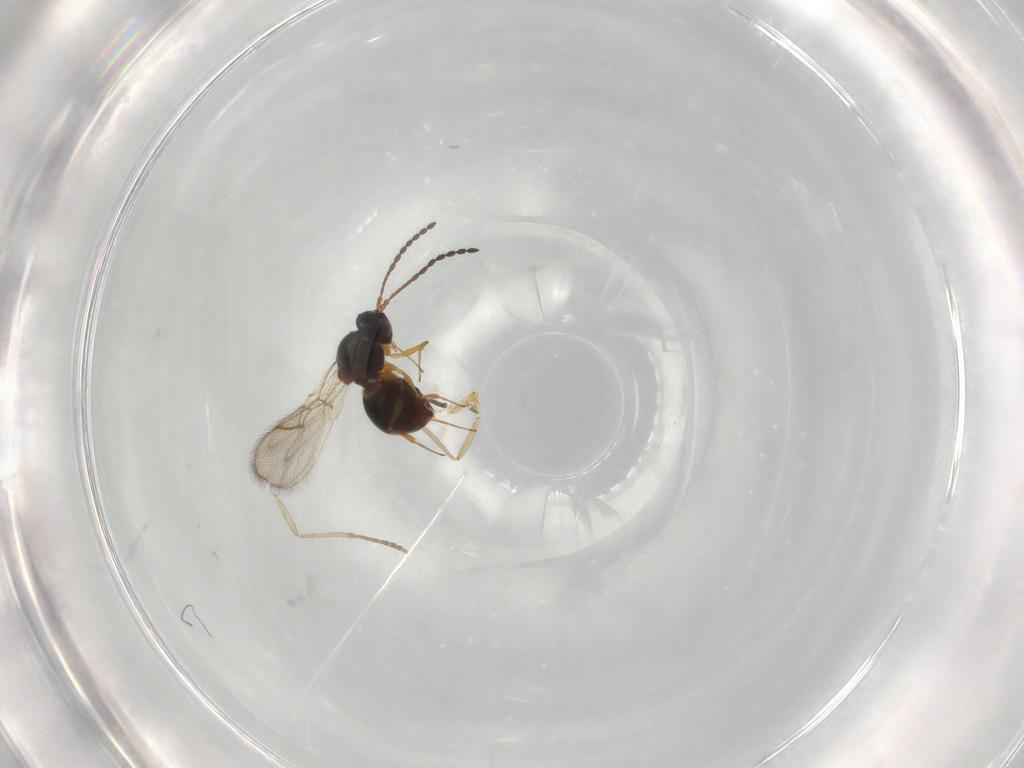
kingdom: Animalia
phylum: Arthropoda
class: Insecta
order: Hymenoptera
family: Figitidae
